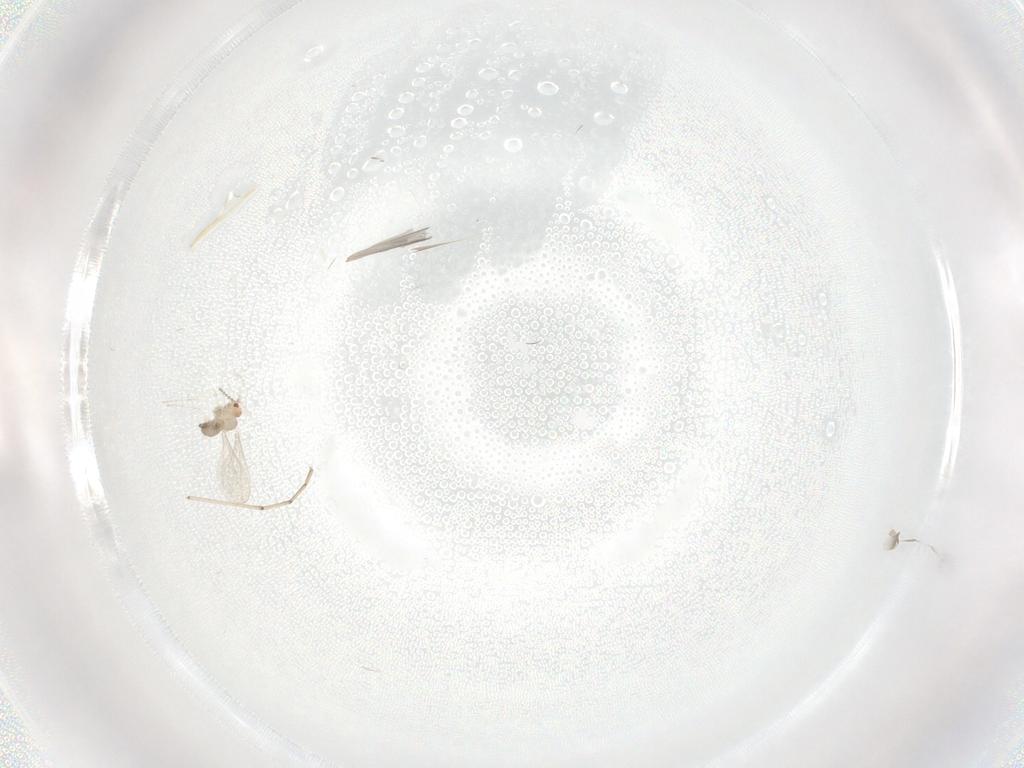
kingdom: Animalia
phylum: Arthropoda
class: Insecta
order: Diptera
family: Cecidomyiidae
